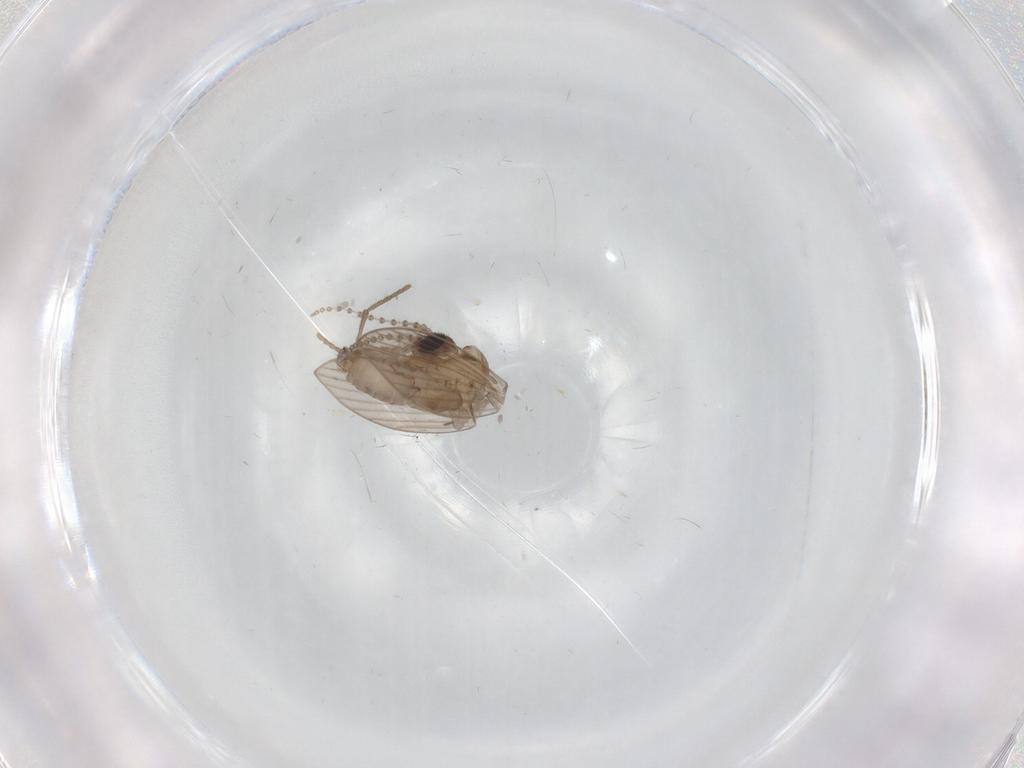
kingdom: Animalia
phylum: Arthropoda
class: Insecta
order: Diptera
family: Psychodidae
